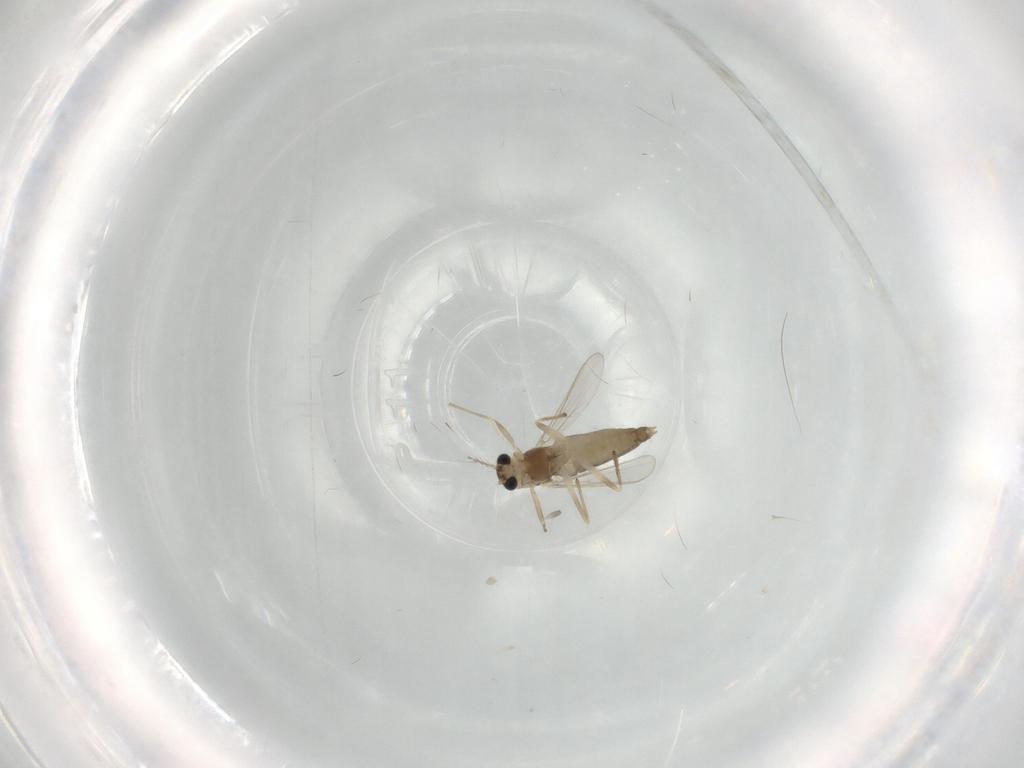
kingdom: Animalia
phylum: Arthropoda
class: Insecta
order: Diptera
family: Chironomidae
